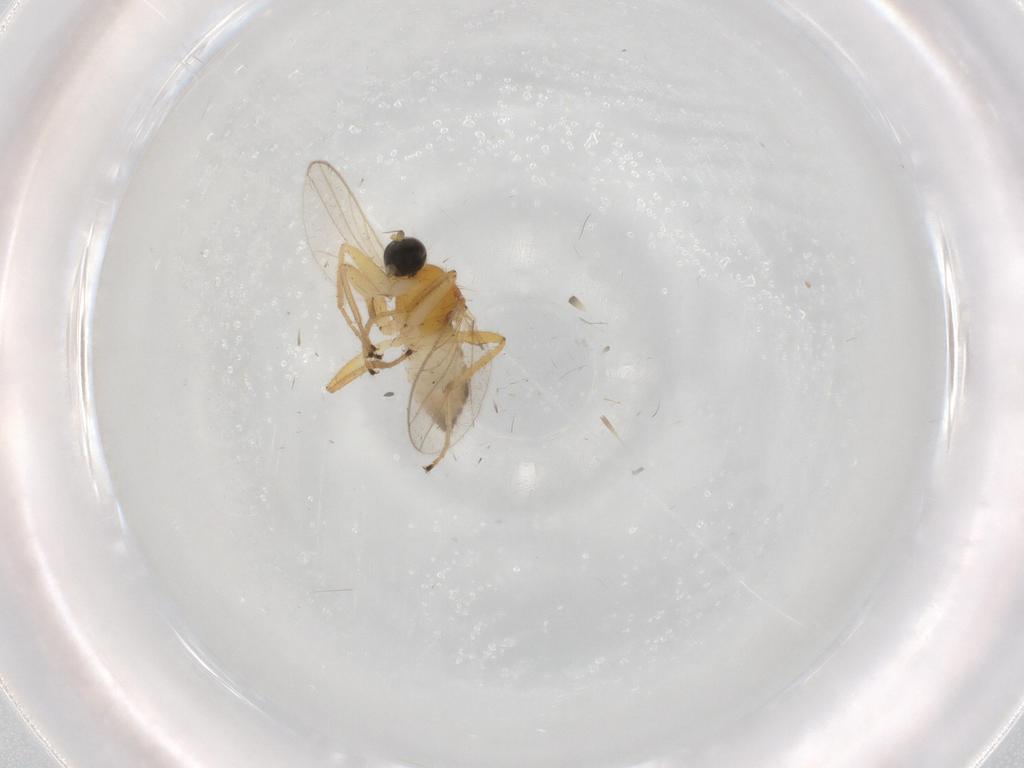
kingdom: Animalia
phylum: Arthropoda
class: Insecta
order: Diptera
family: Hybotidae
